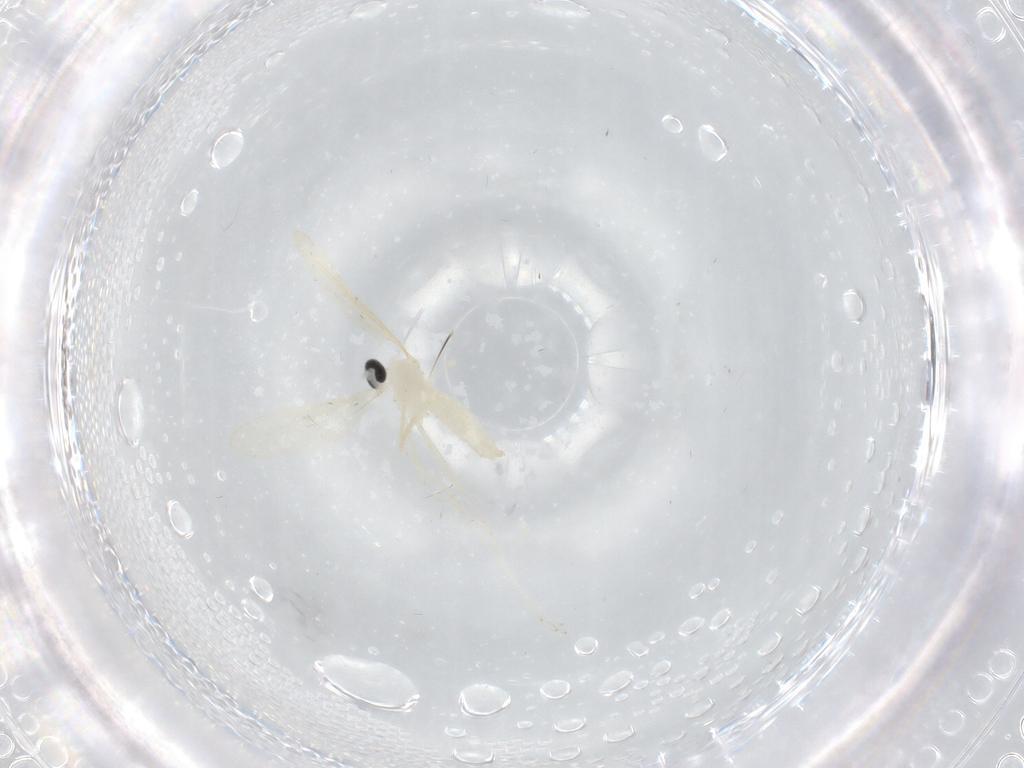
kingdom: Animalia
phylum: Arthropoda
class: Insecta
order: Diptera
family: Cecidomyiidae
